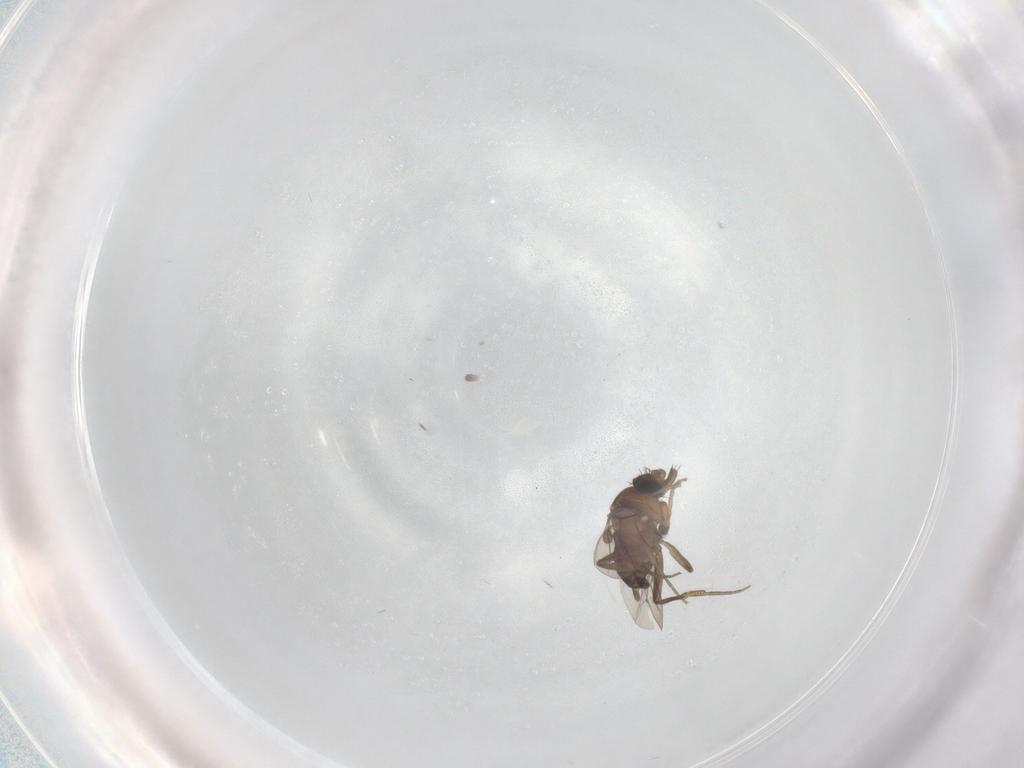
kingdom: Animalia
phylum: Arthropoda
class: Insecta
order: Diptera
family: Phoridae
